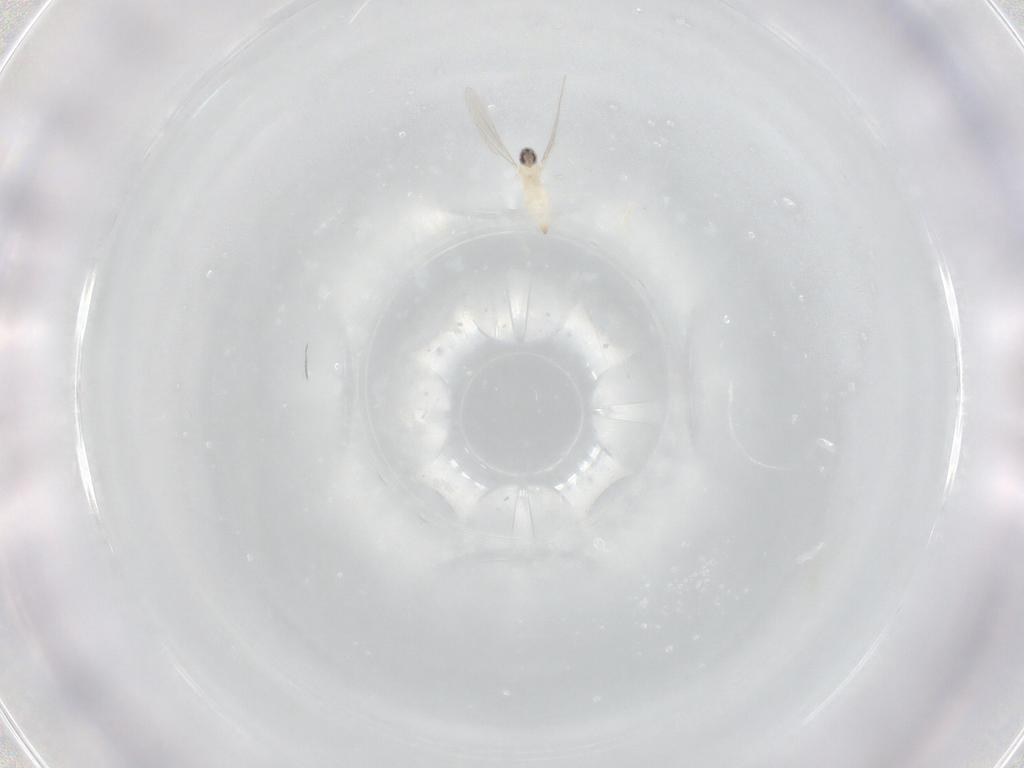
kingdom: Animalia
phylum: Arthropoda
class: Insecta
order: Diptera
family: Cecidomyiidae
